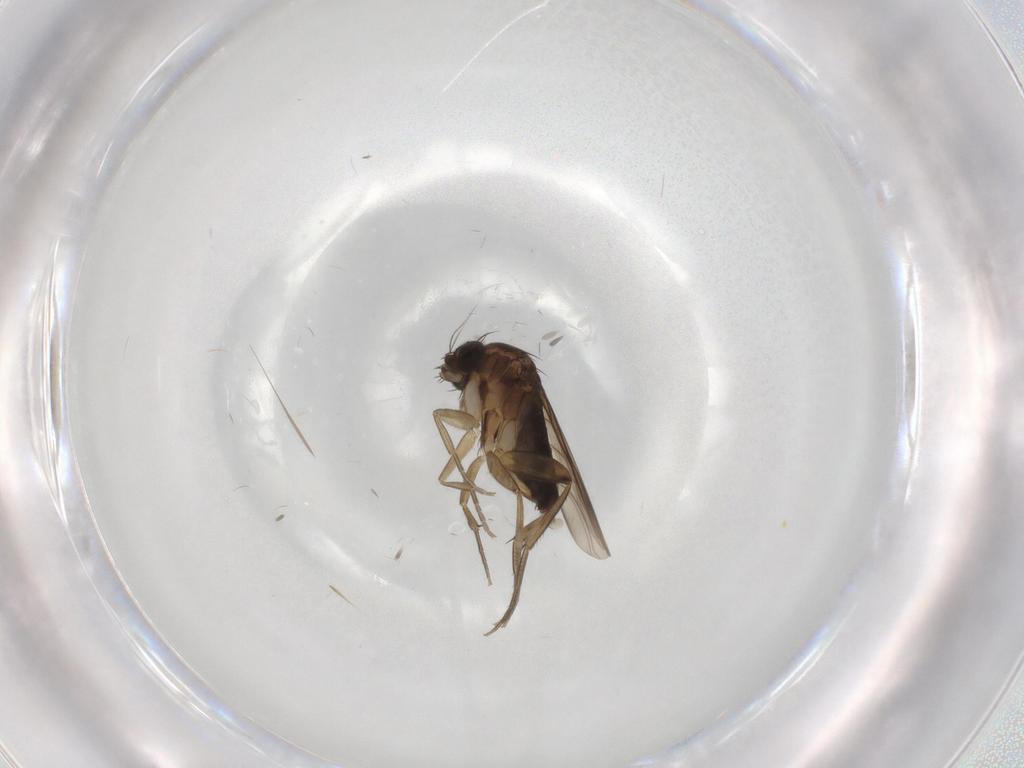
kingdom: Animalia
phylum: Arthropoda
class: Insecta
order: Diptera
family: Phoridae
